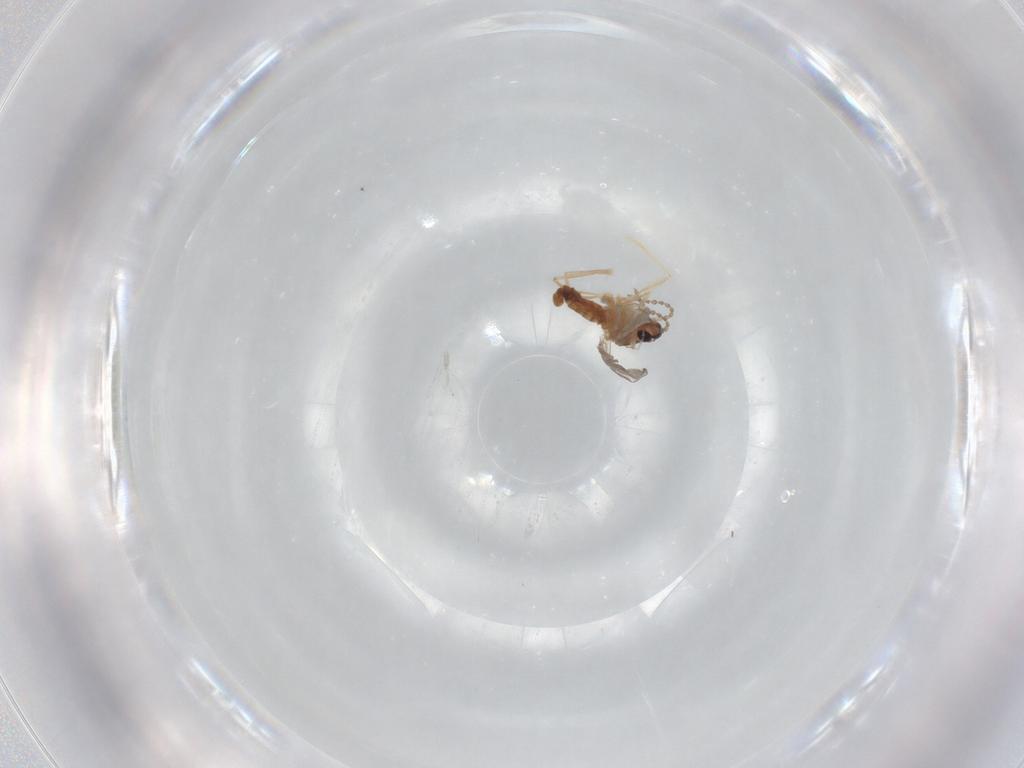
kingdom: Animalia
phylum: Arthropoda
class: Insecta
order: Diptera
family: Cecidomyiidae
